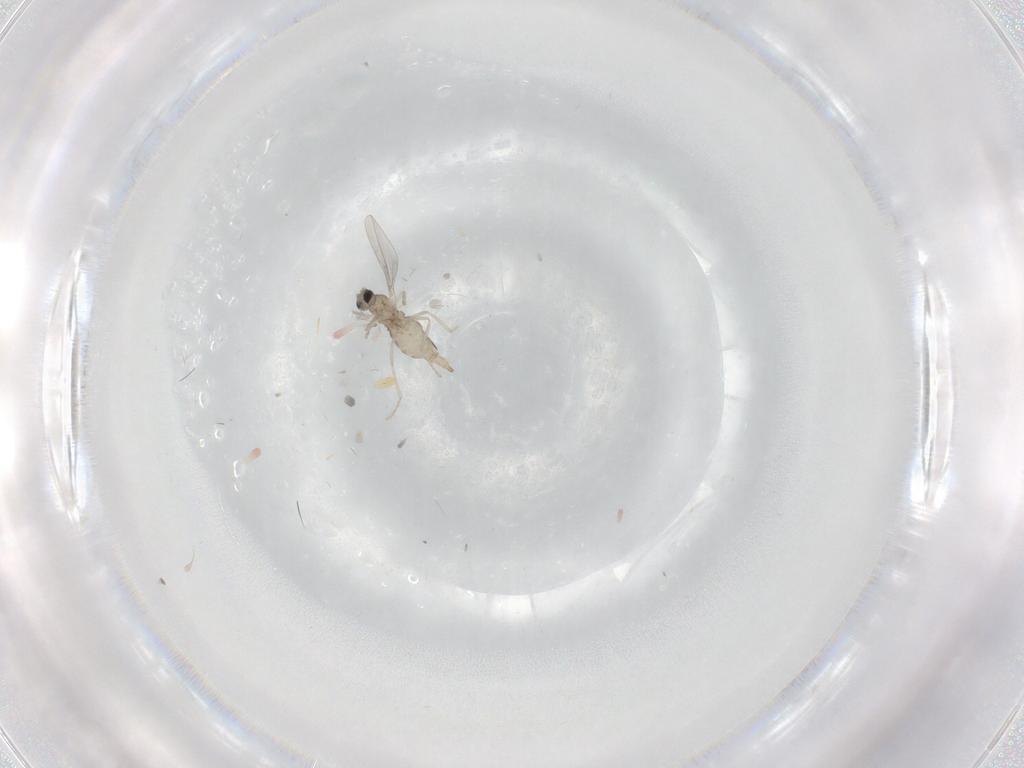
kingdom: Animalia
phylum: Arthropoda
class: Insecta
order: Diptera
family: Cecidomyiidae
